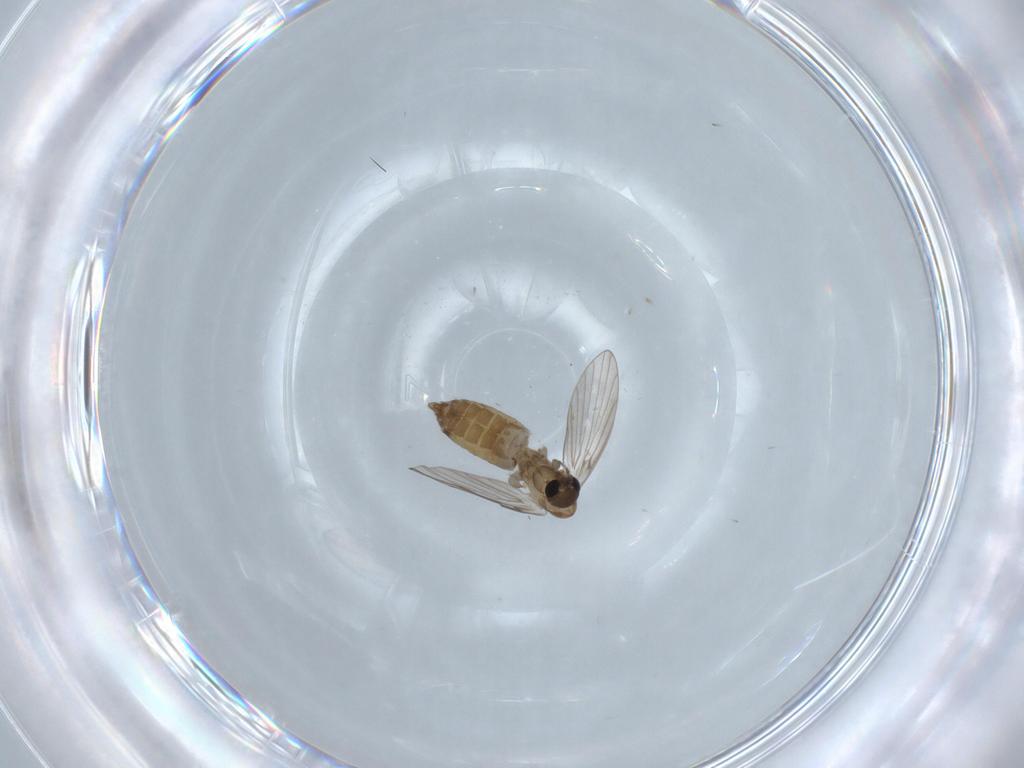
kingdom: Animalia
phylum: Arthropoda
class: Insecta
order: Diptera
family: Psychodidae
